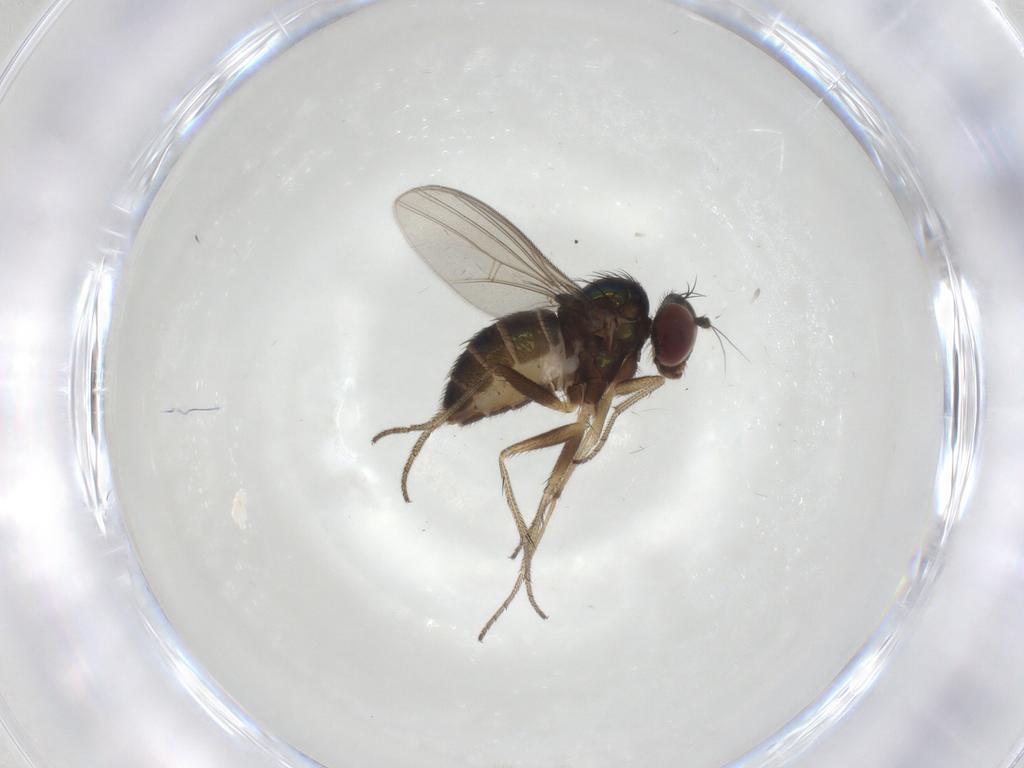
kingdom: Animalia
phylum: Arthropoda
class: Insecta
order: Diptera
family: Dolichopodidae
